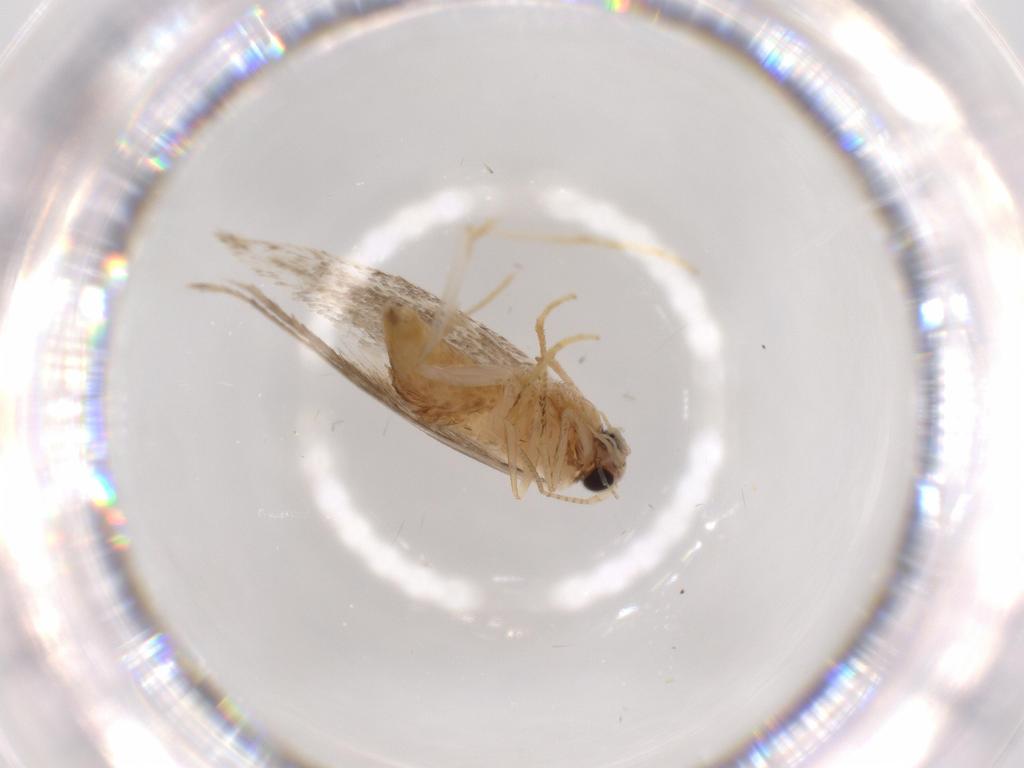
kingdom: Animalia
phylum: Arthropoda
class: Insecta
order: Lepidoptera
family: Tineidae
